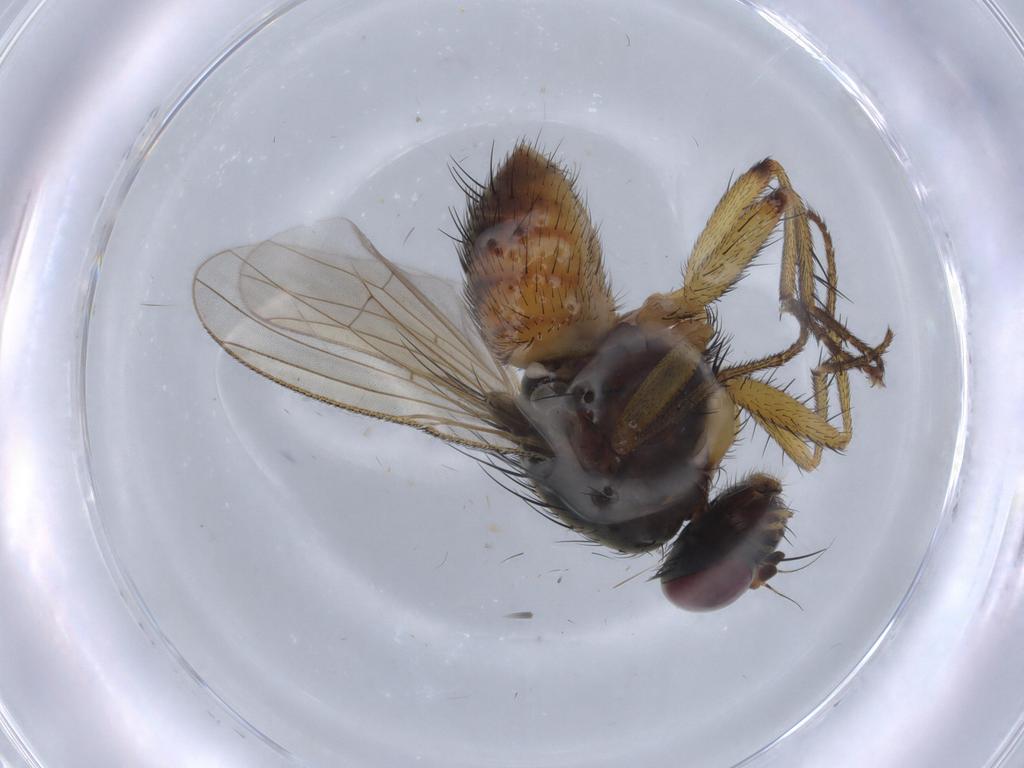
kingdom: Animalia
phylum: Arthropoda
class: Insecta
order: Diptera
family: Muscidae
